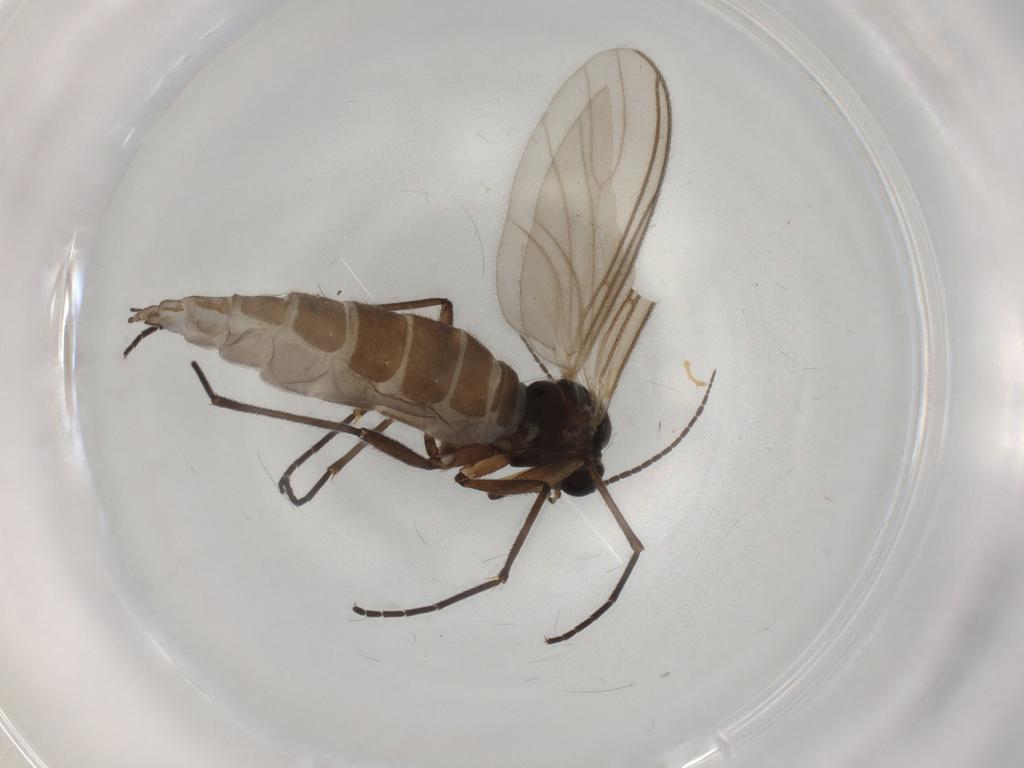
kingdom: Animalia
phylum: Arthropoda
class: Insecta
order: Diptera
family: Sciaridae
